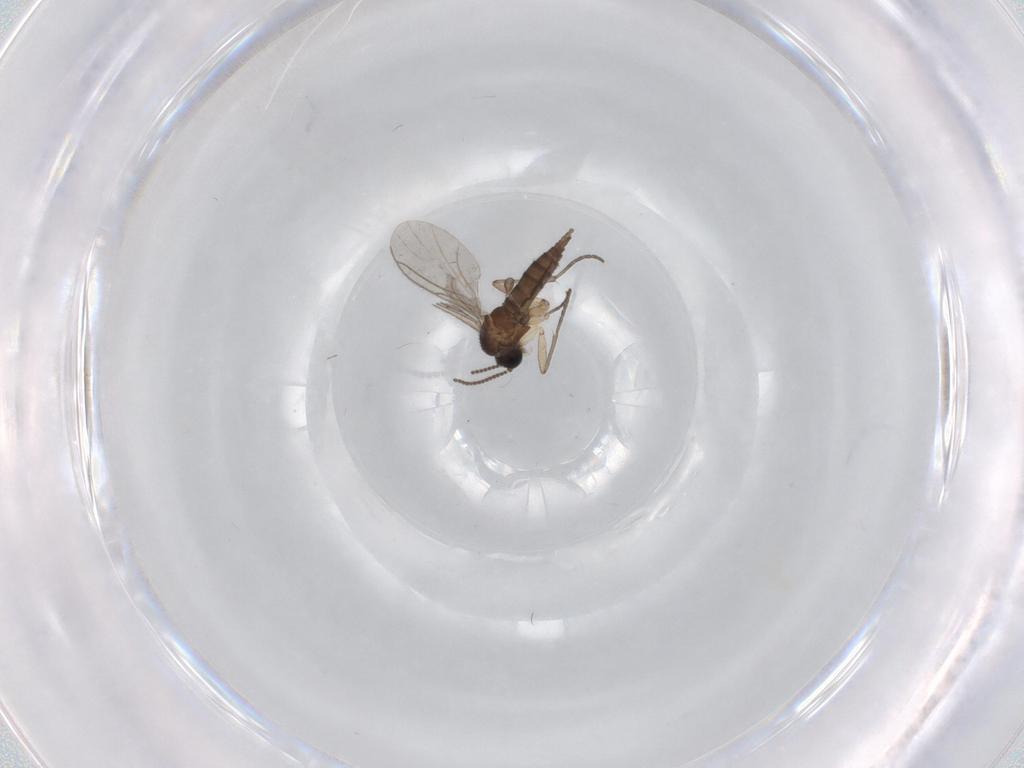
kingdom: Animalia
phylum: Arthropoda
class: Insecta
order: Diptera
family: Sciaridae
